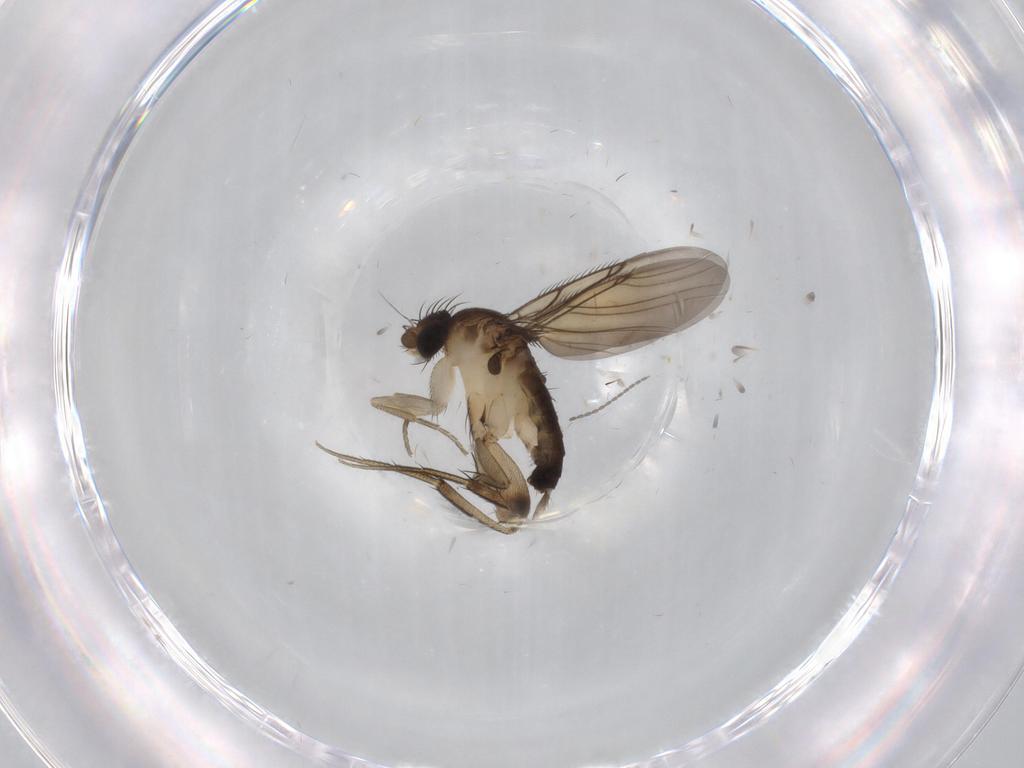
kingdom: Animalia
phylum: Arthropoda
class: Insecta
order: Diptera
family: Phoridae
